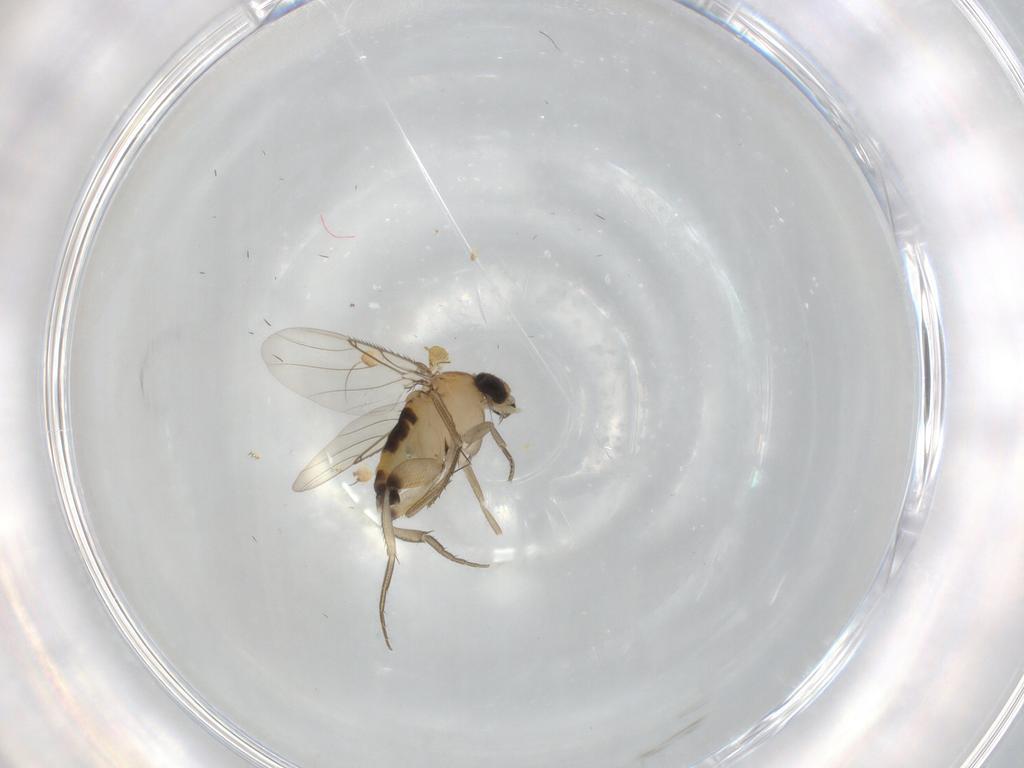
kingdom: Animalia
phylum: Arthropoda
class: Insecta
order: Diptera
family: Phoridae
